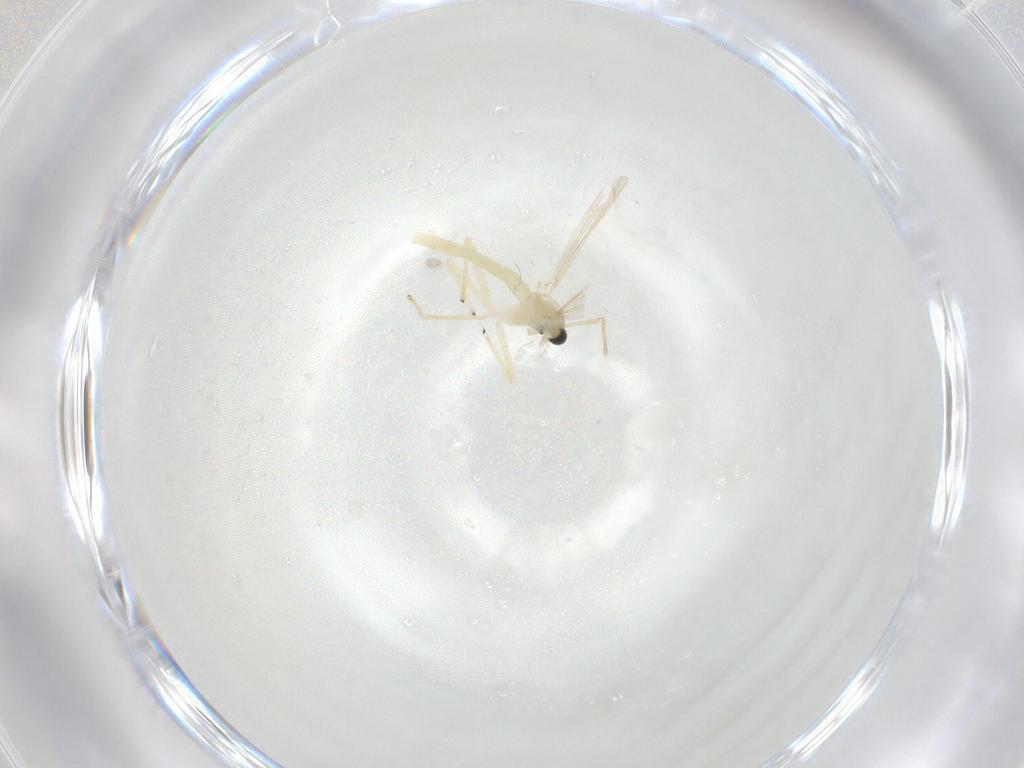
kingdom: Animalia
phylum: Arthropoda
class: Insecta
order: Diptera
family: Chironomidae
